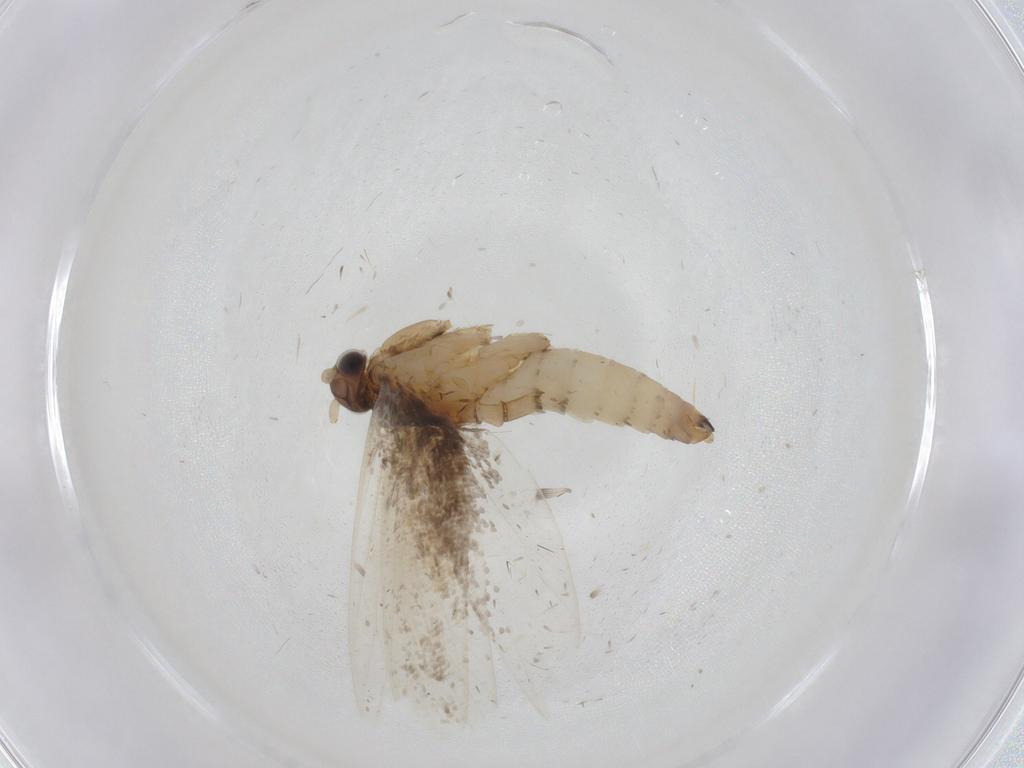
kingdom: Animalia
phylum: Arthropoda
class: Insecta
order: Lepidoptera
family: Tineidae
